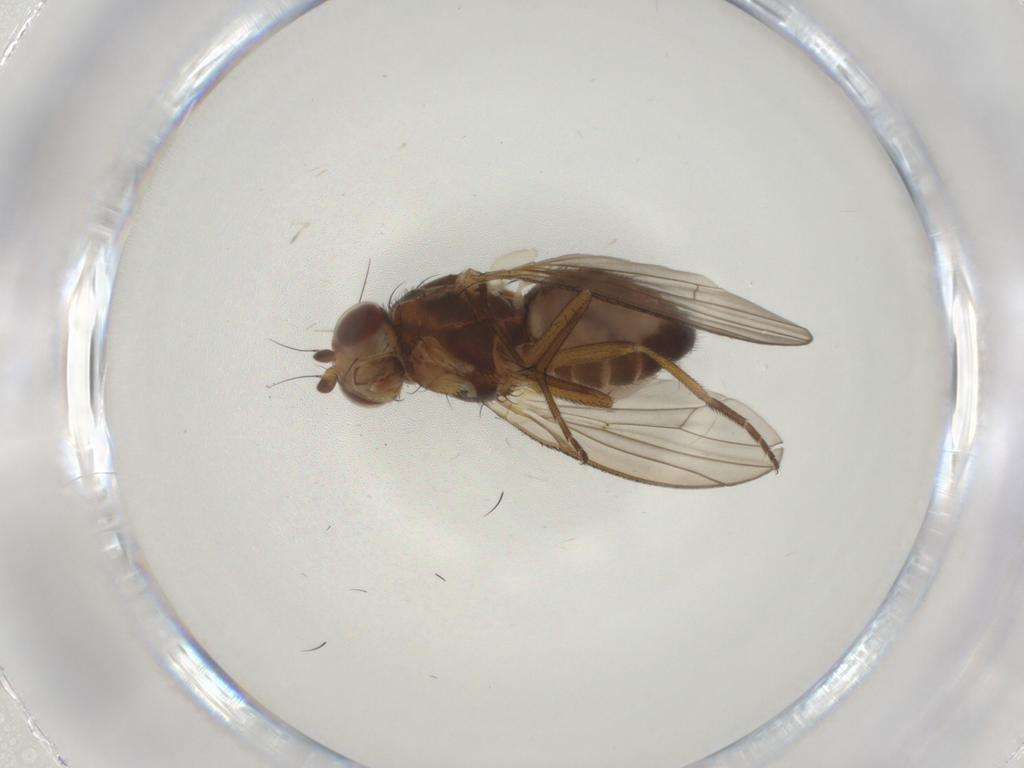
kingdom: Animalia
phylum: Arthropoda
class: Insecta
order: Diptera
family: Heleomyzidae
